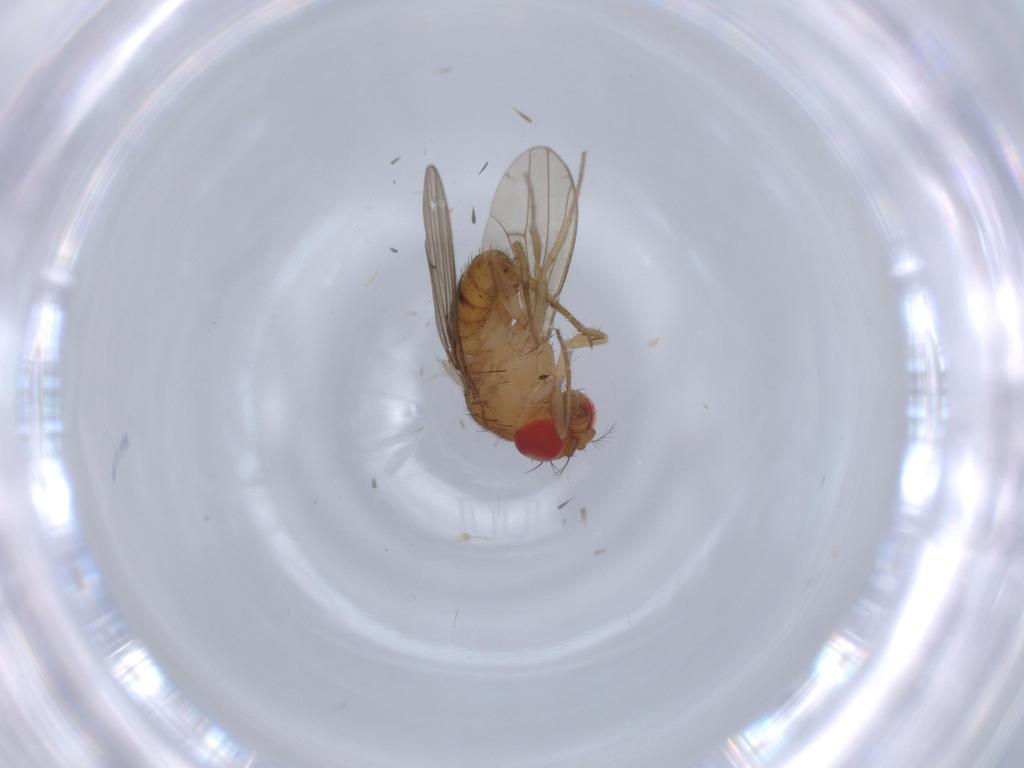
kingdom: Animalia
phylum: Arthropoda
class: Insecta
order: Diptera
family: Drosophilidae
